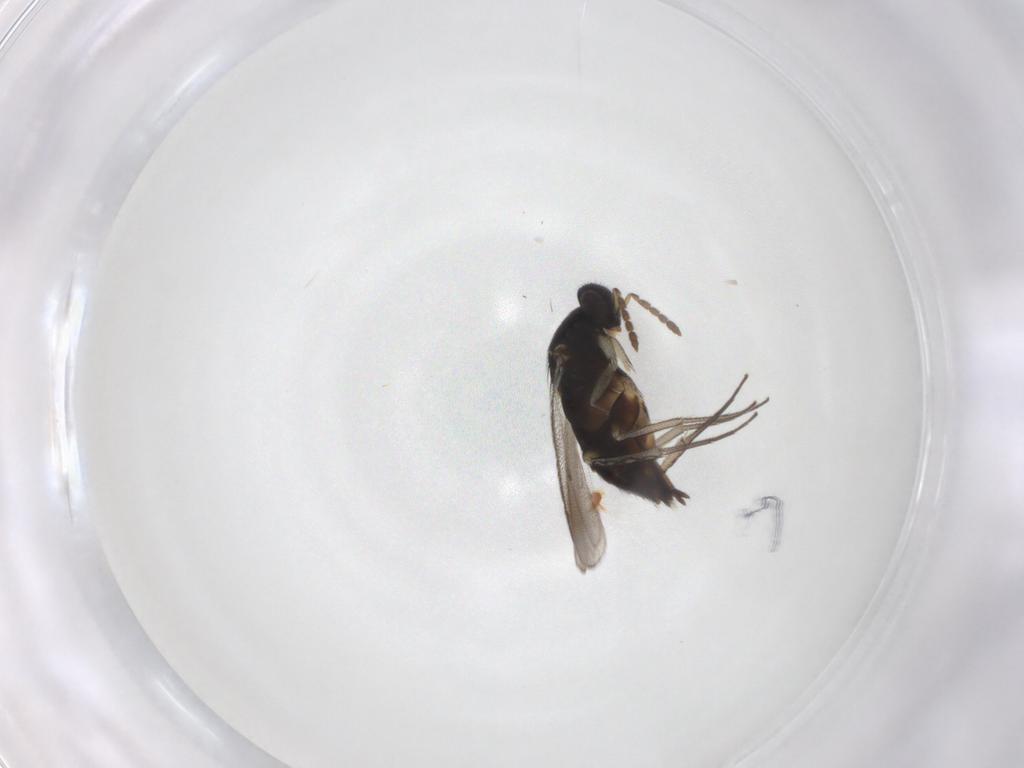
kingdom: Animalia
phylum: Arthropoda
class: Insecta
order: Hymenoptera
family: Eulophidae
